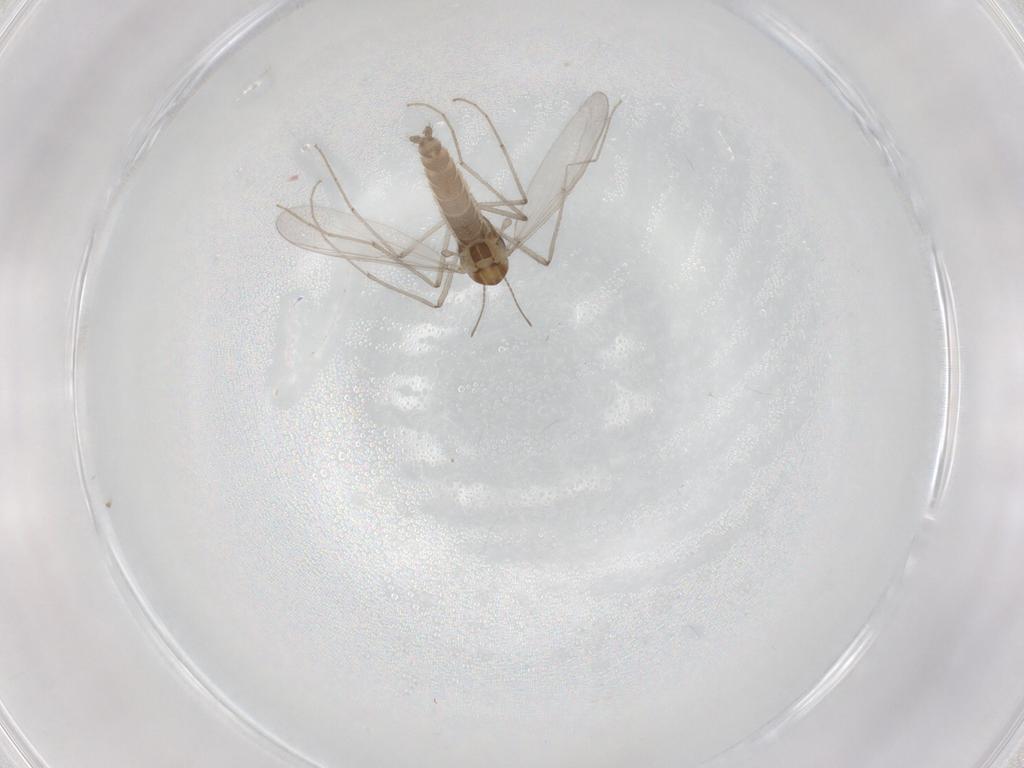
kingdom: Animalia
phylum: Arthropoda
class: Insecta
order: Diptera
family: Chironomidae
